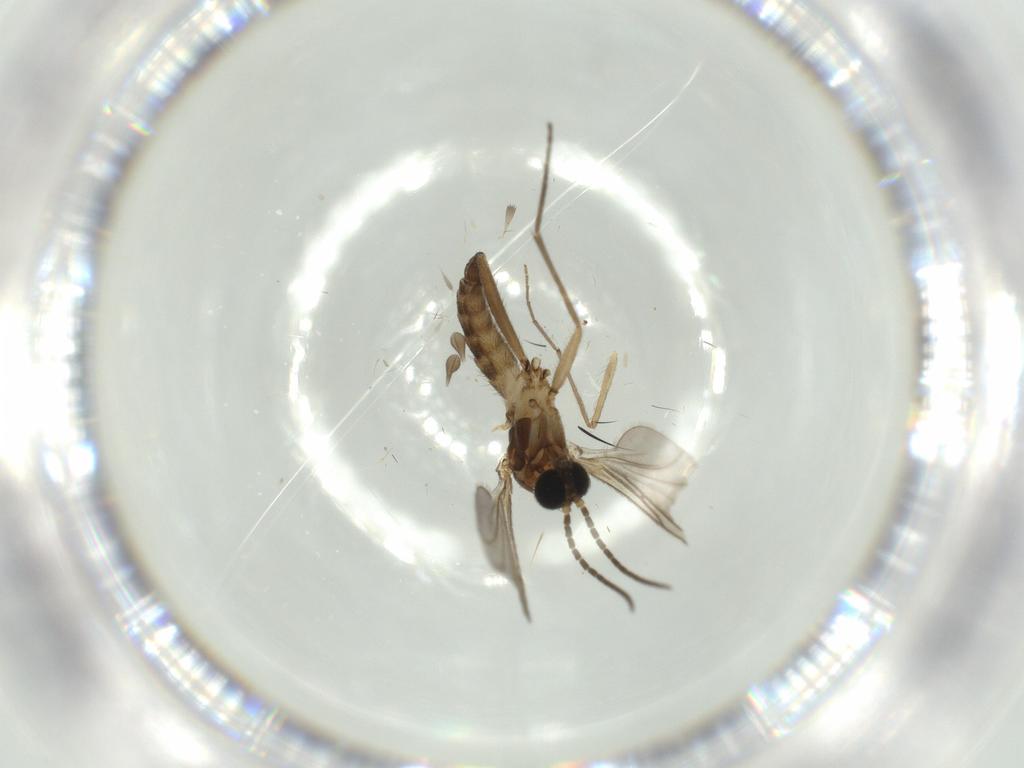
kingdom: Animalia
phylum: Arthropoda
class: Insecta
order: Diptera
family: Sciaridae
